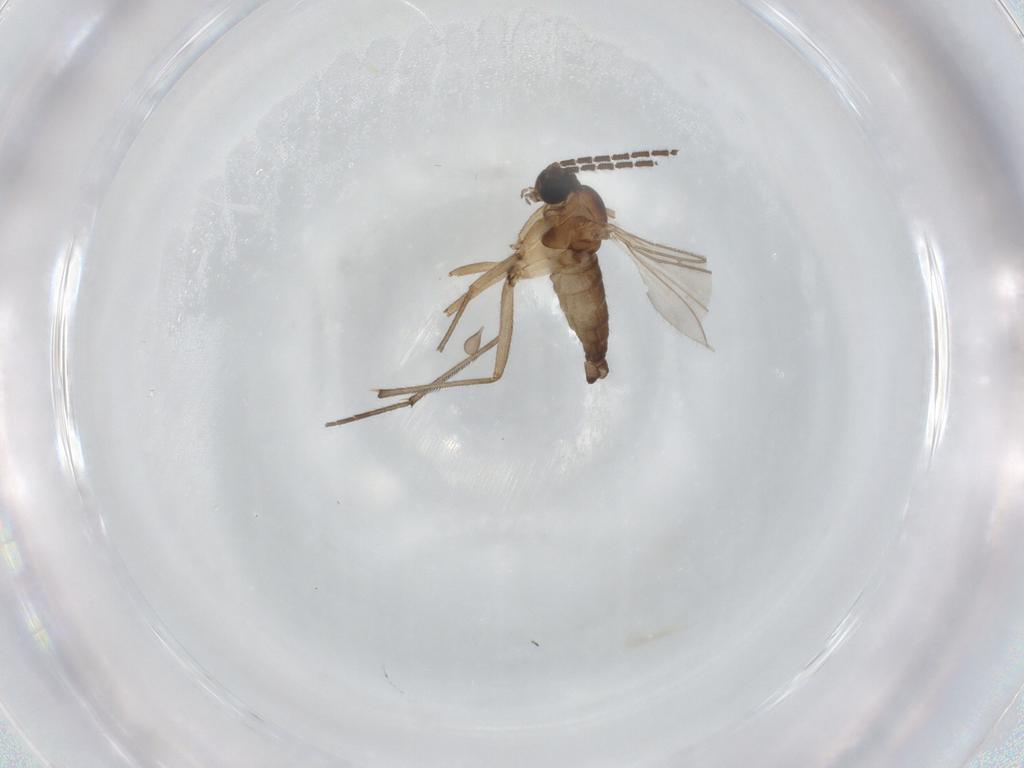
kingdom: Animalia
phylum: Arthropoda
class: Insecta
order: Diptera
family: Sciaridae
